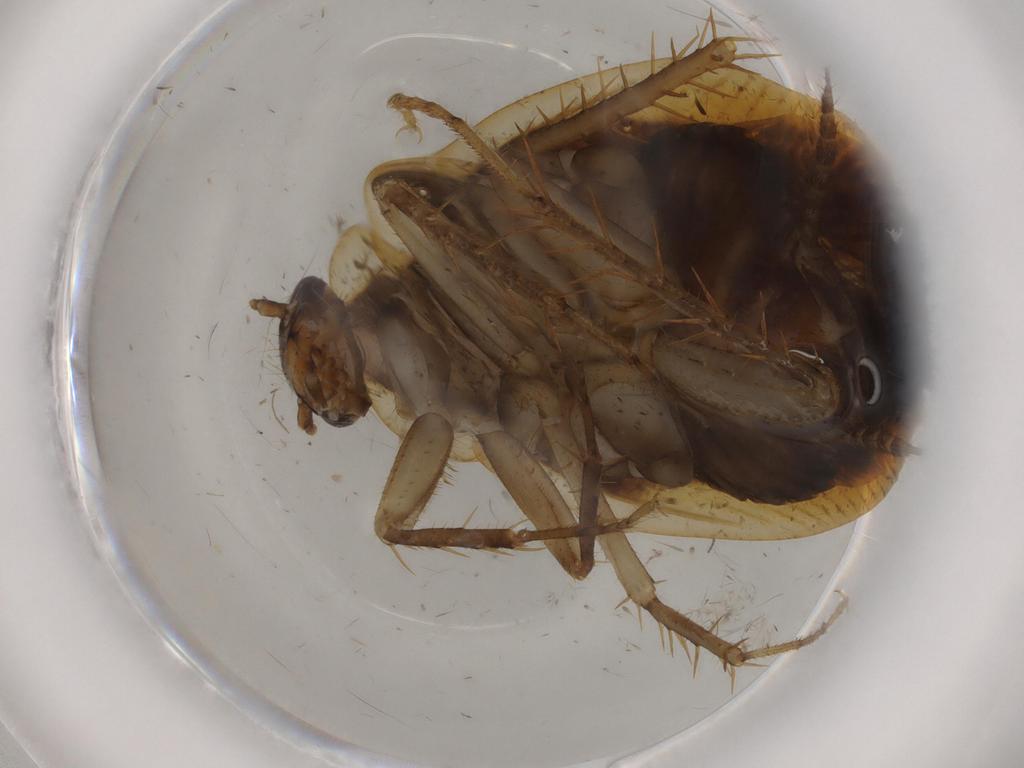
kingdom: Animalia
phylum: Arthropoda
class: Insecta
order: Blattodea
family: Ectobiidae
